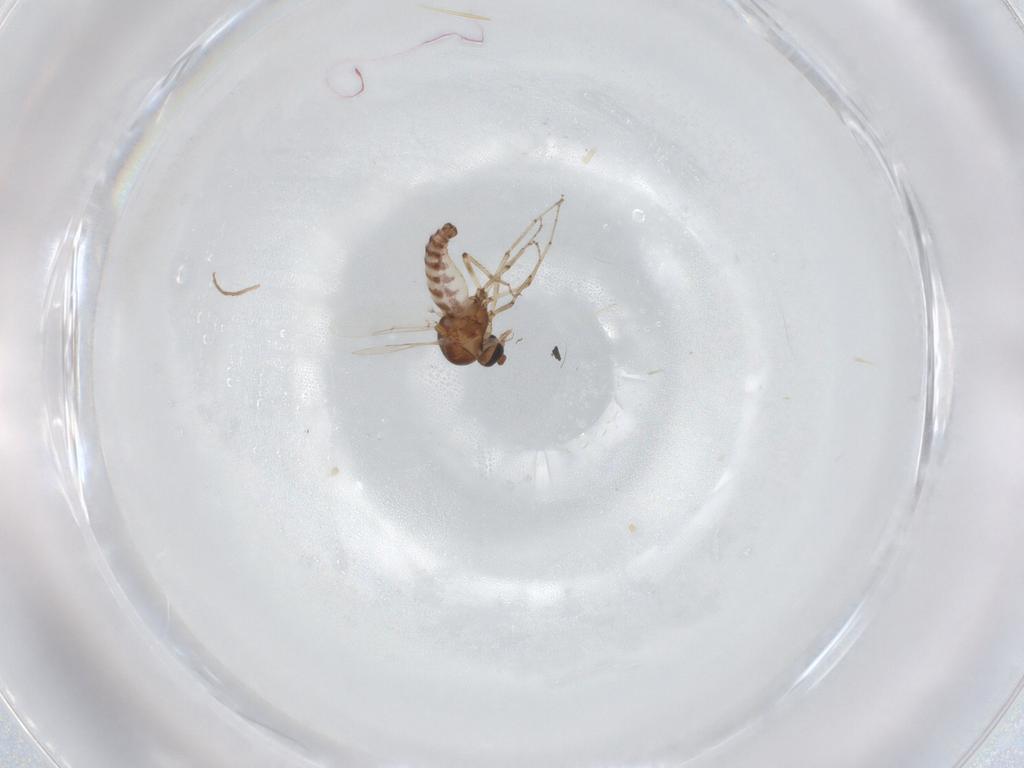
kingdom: Animalia
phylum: Arthropoda
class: Insecta
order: Diptera
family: Ceratopogonidae
